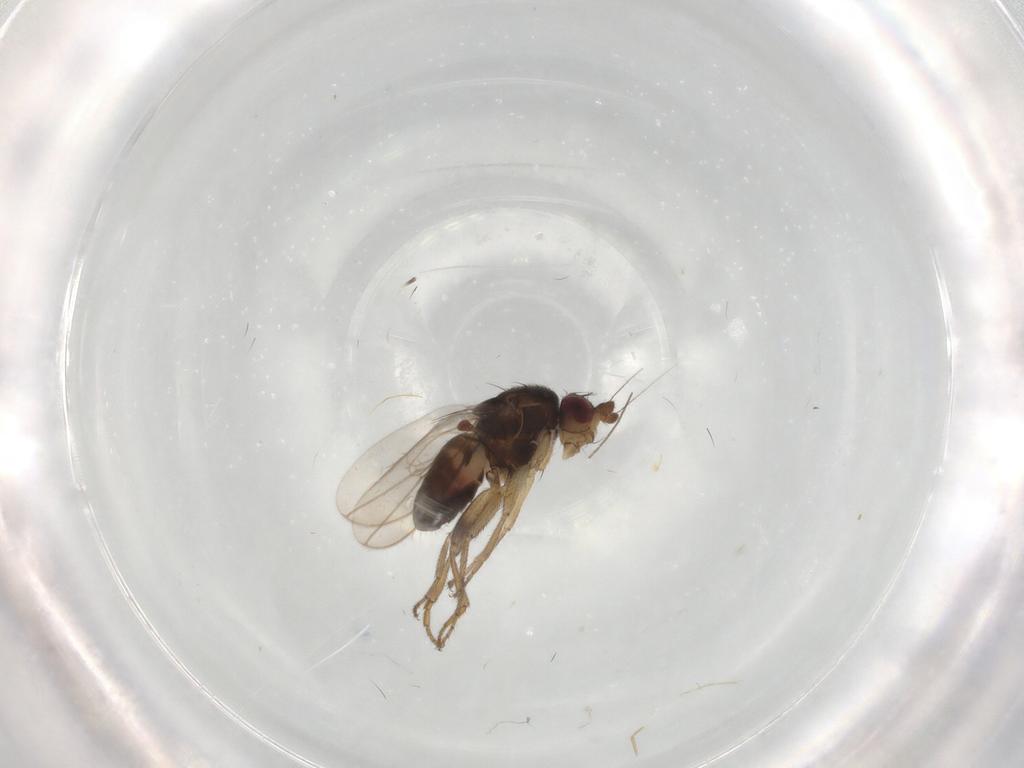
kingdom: Animalia
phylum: Arthropoda
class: Insecta
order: Diptera
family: Sphaeroceridae
